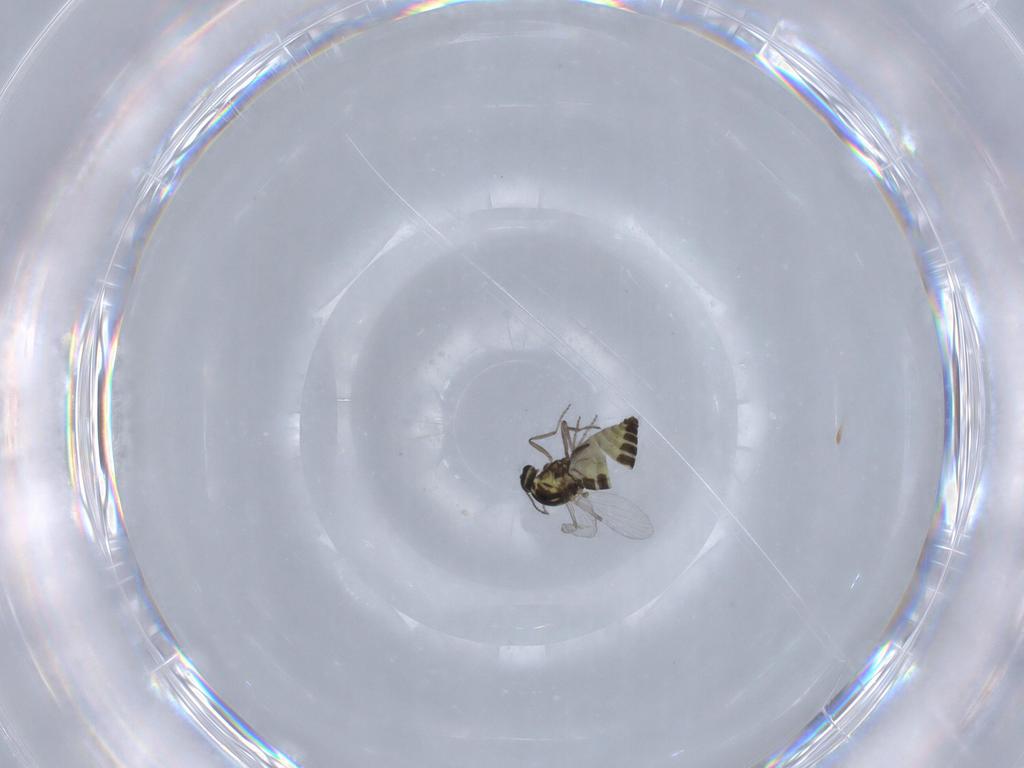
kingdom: Animalia
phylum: Arthropoda
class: Insecta
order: Diptera
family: Ceratopogonidae
